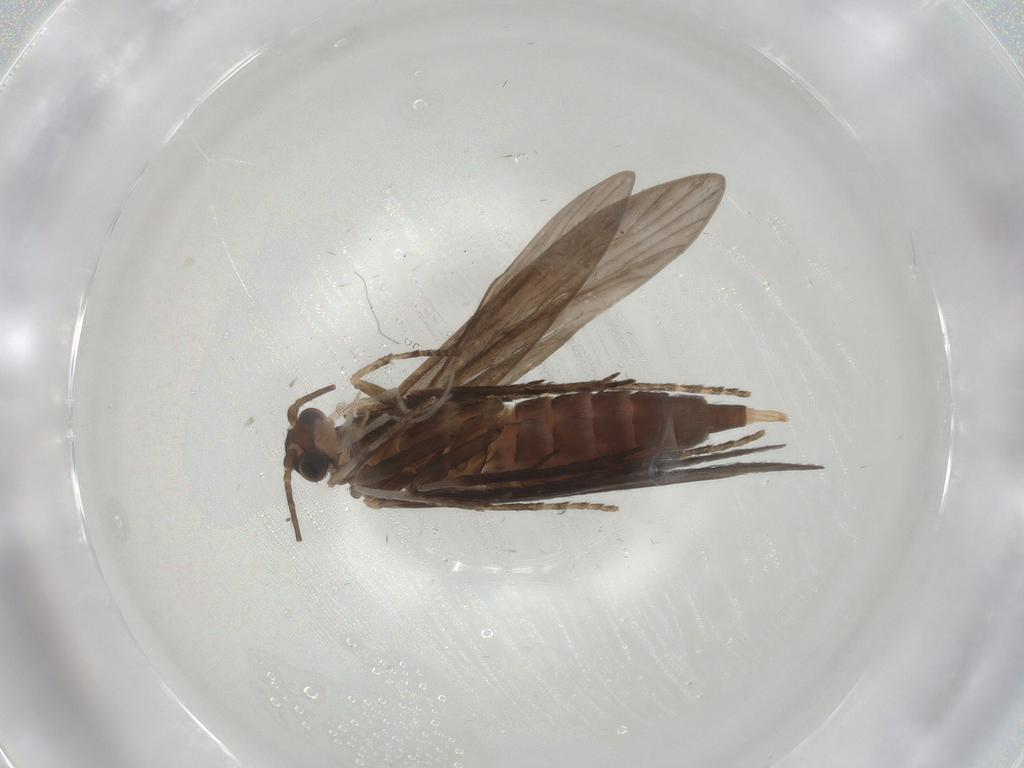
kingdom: Animalia
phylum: Arthropoda
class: Insecta
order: Trichoptera
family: Xiphocentronidae
